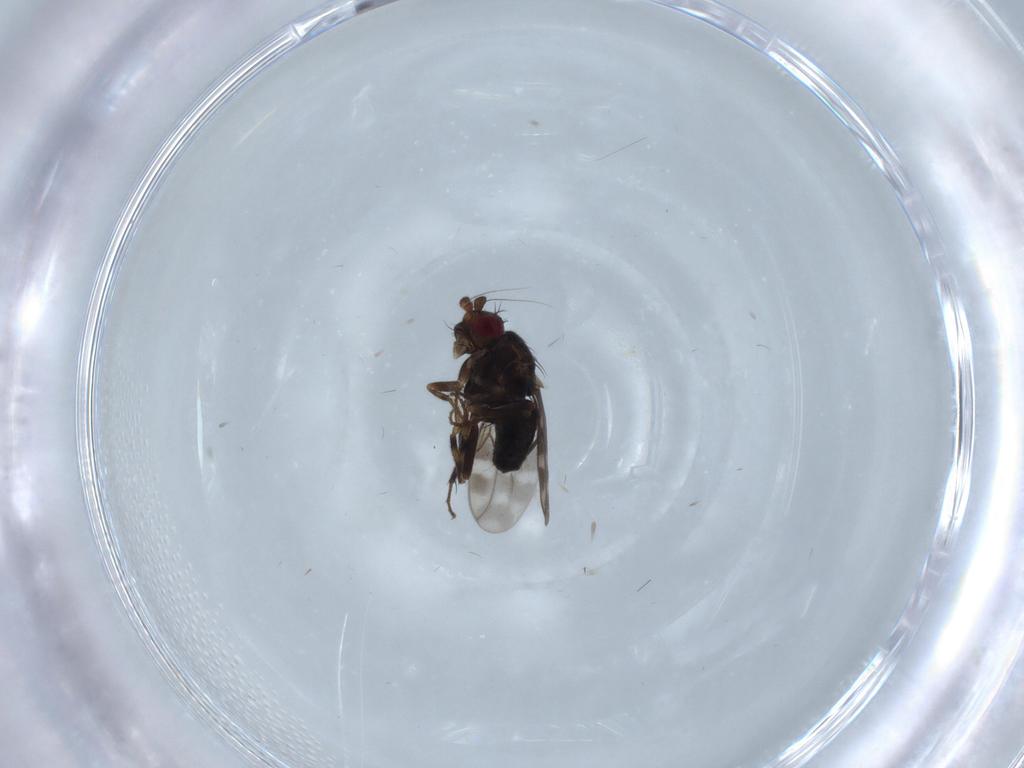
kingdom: Animalia
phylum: Arthropoda
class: Insecta
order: Diptera
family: Sphaeroceridae
